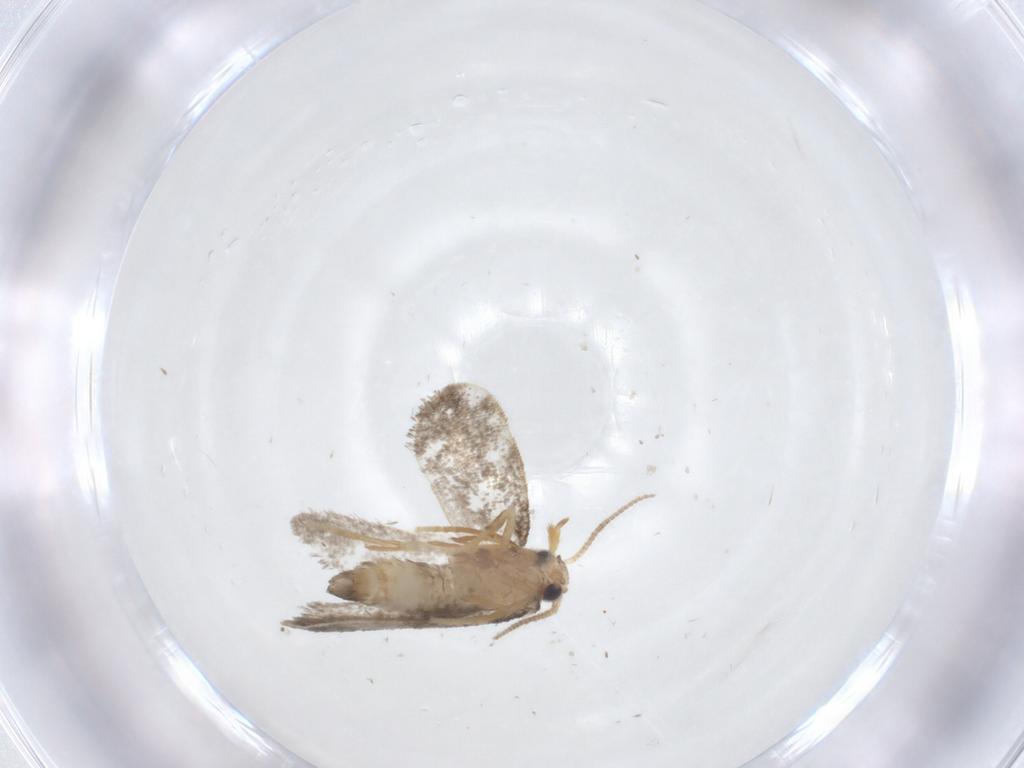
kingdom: Animalia
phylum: Arthropoda
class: Insecta
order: Lepidoptera
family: Psychidae
